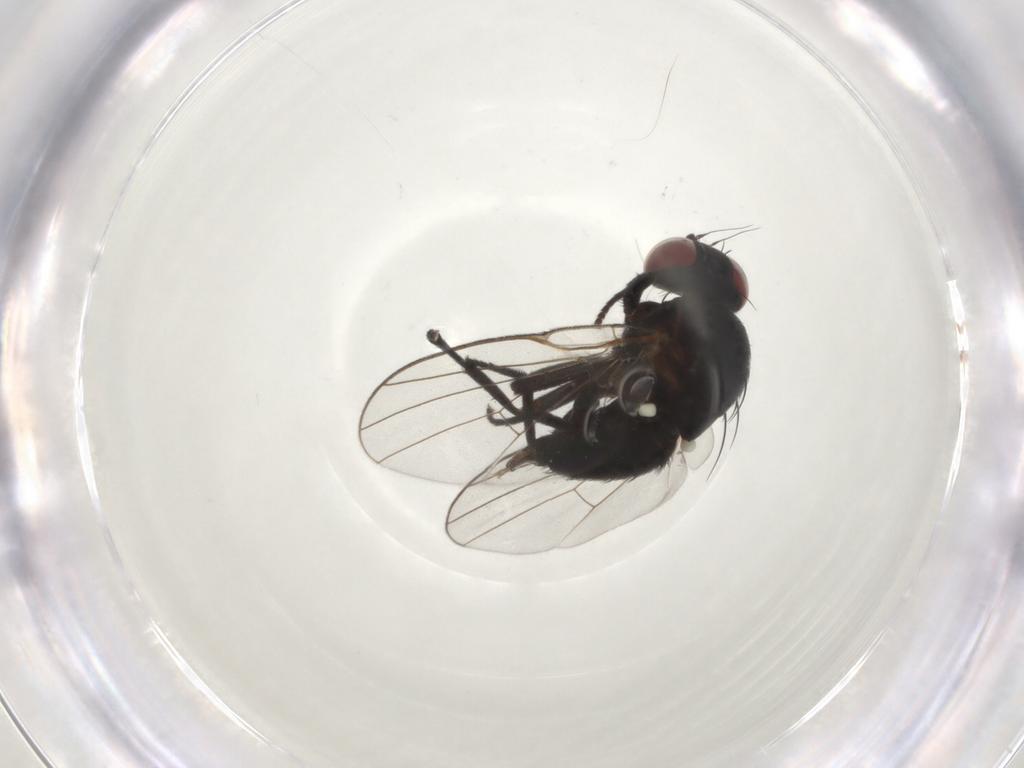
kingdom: Animalia
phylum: Arthropoda
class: Insecta
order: Diptera
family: Agromyzidae
